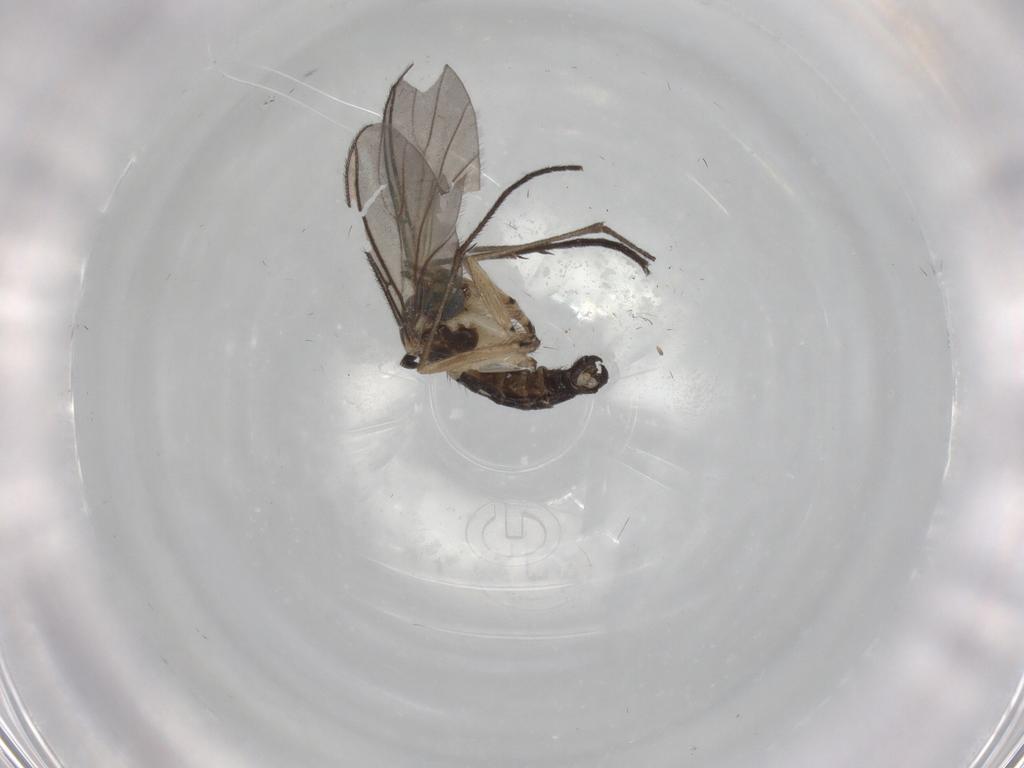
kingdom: Animalia
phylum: Arthropoda
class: Insecta
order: Diptera
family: Cecidomyiidae
